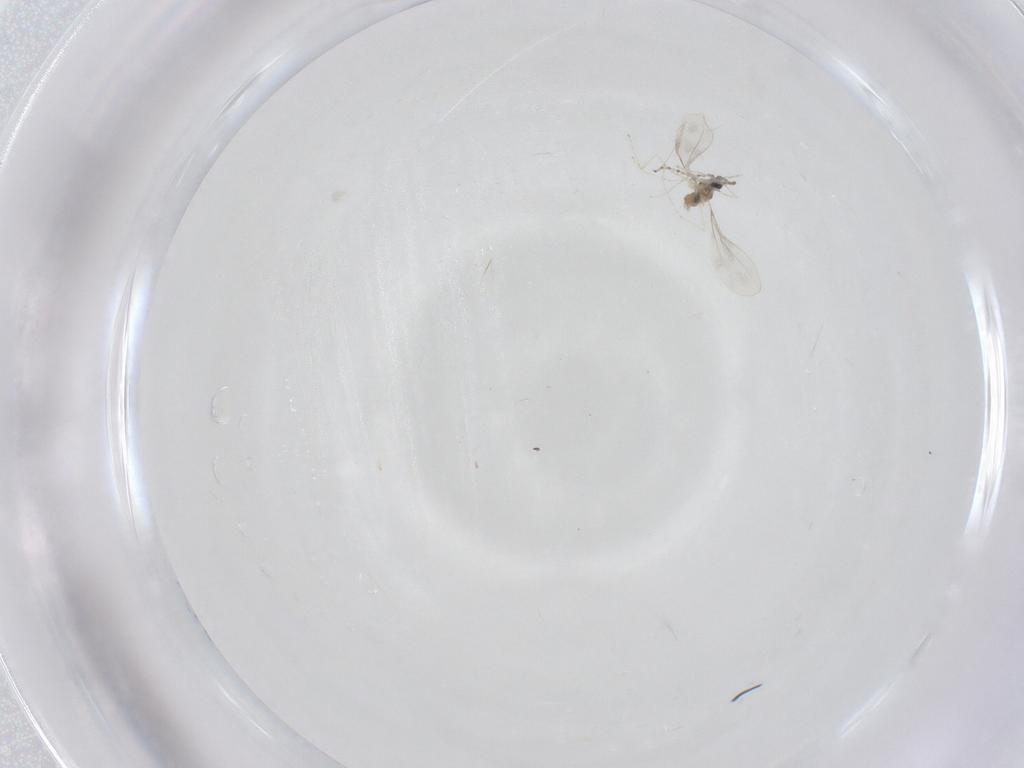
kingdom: Animalia
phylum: Arthropoda
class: Insecta
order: Diptera
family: Cecidomyiidae
